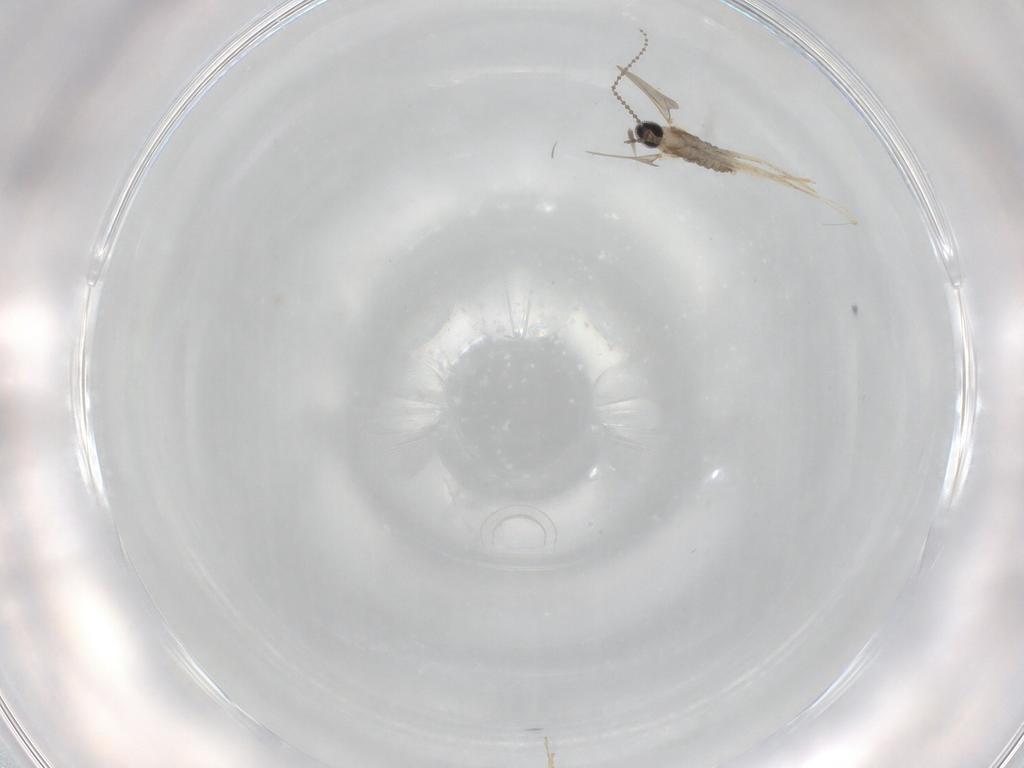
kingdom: Animalia
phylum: Arthropoda
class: Insecta
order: Diptera
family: Cecidomyiidae
